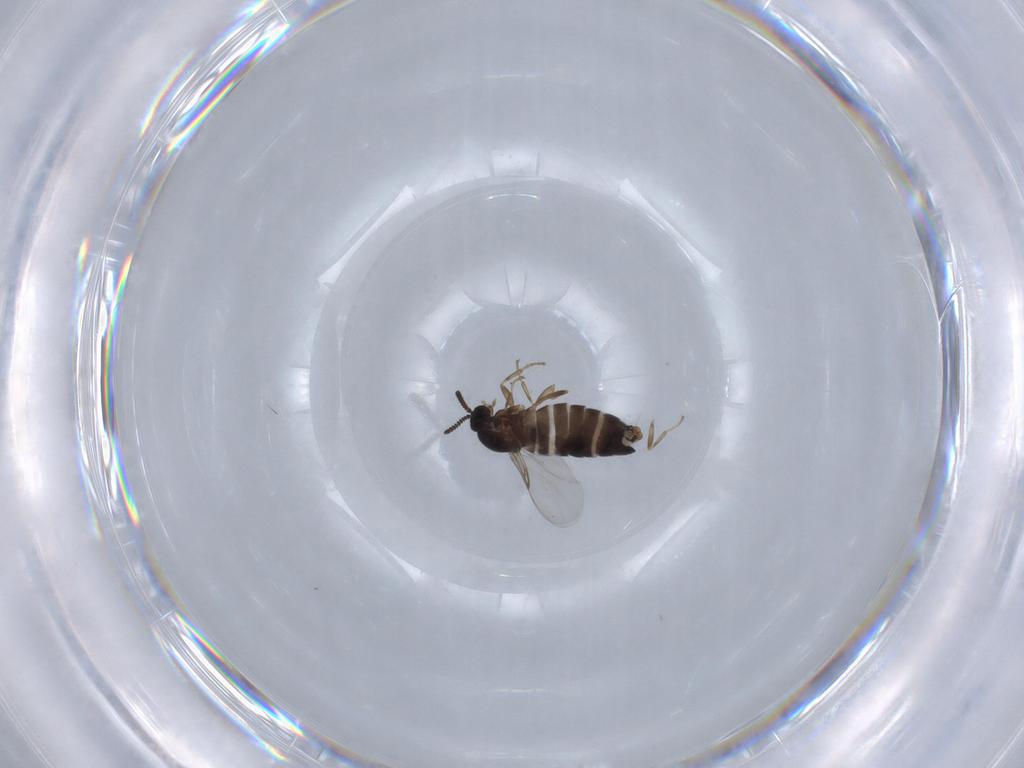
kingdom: Animalia
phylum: Arthropoda
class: Insecta
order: Diptera
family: Scatopsidae
